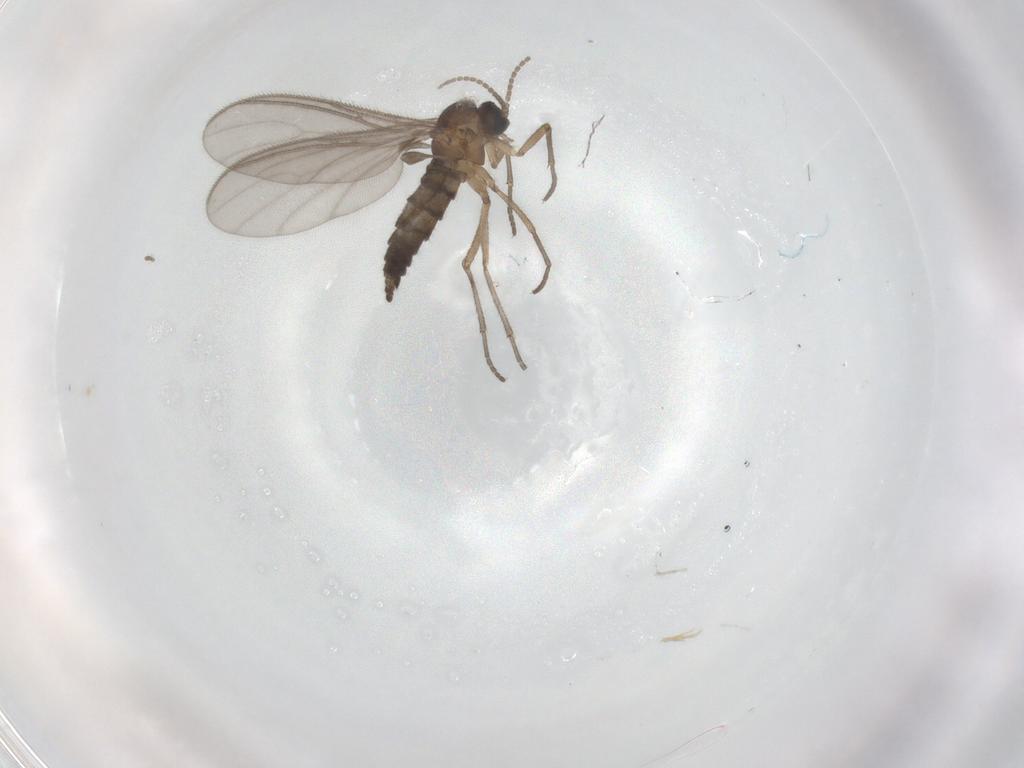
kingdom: Animalia
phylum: Arthropoda
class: Insecta
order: Diptera
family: Sciaridae
